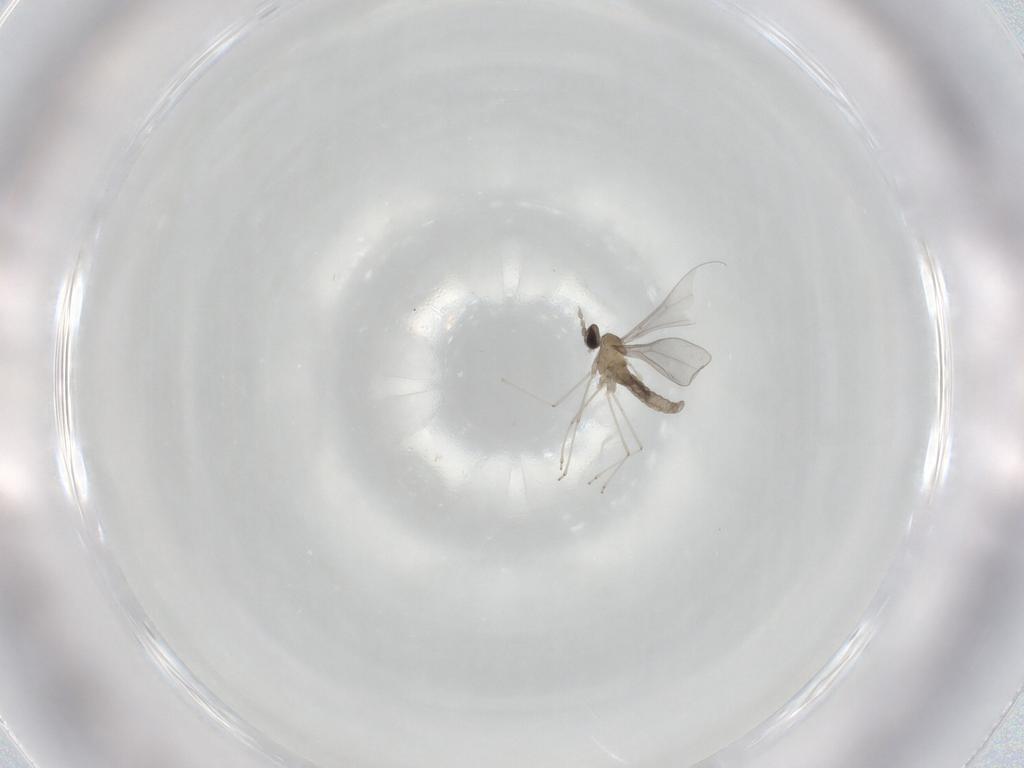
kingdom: Animalia
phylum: Arthropoda
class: Insecta
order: Diptera
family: Cecidomyiidae
